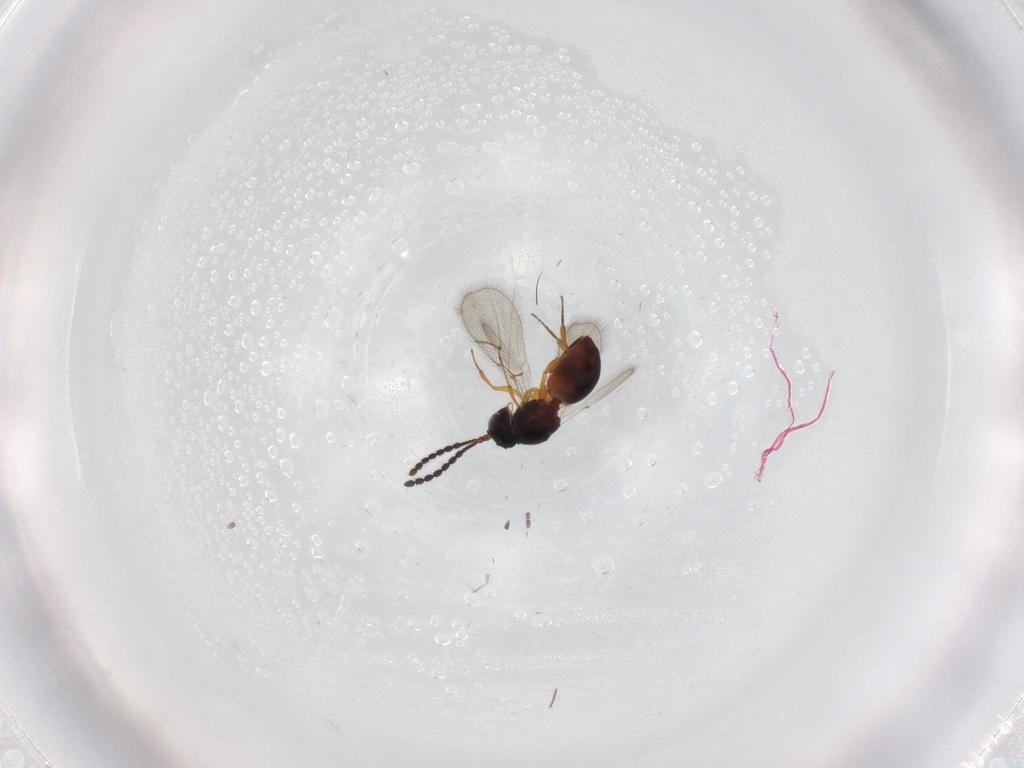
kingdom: Animalia
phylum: Arthropoda
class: Insecta
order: Hymenoptera
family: Figitidae
